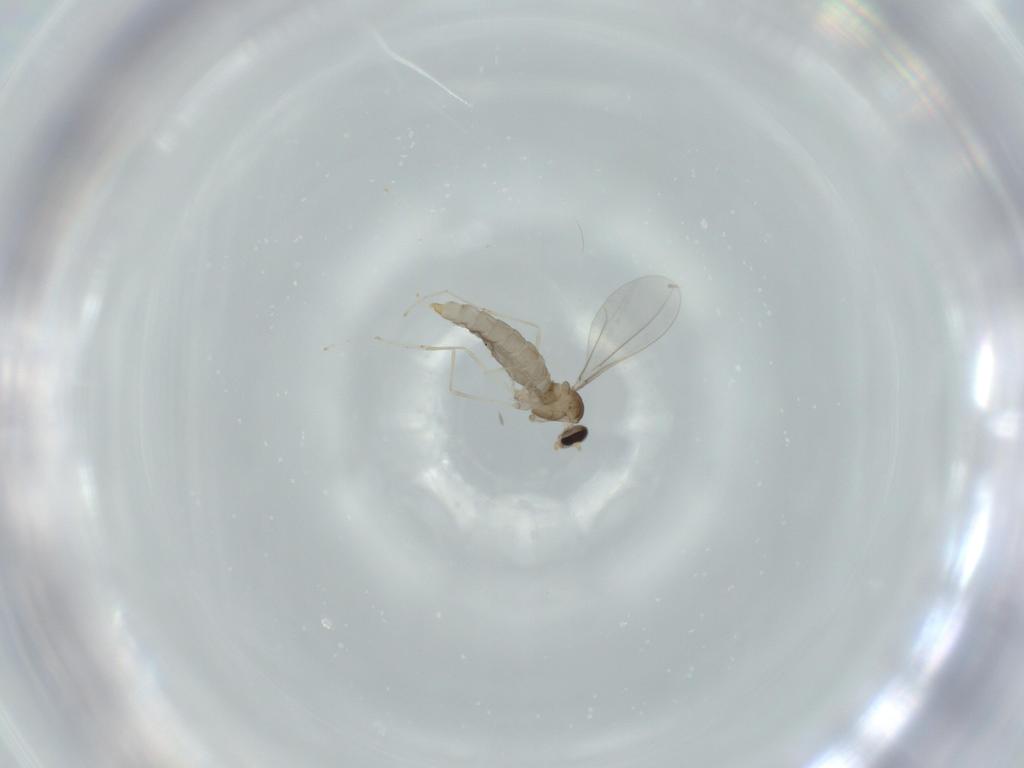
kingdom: Animalia
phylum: Arthropoda
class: Insecta
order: Diptera
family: Cecidomyiidae
